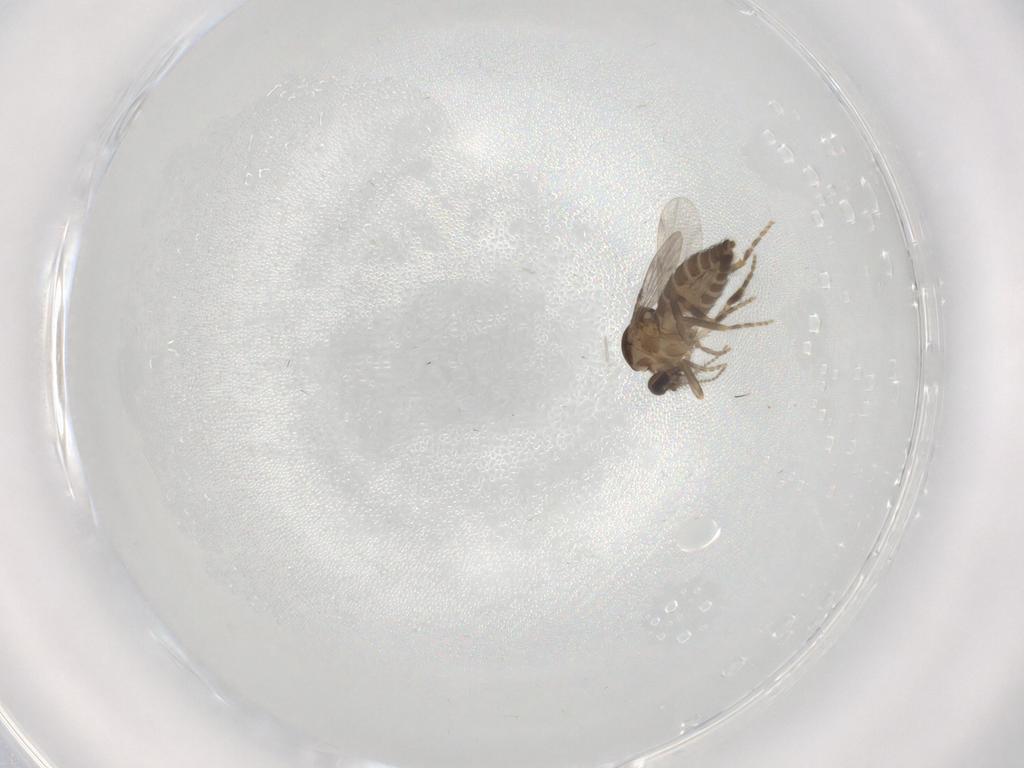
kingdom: Animalia
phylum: Arthropoda
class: Insecta
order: Diptera
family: Ceratopogonidae
